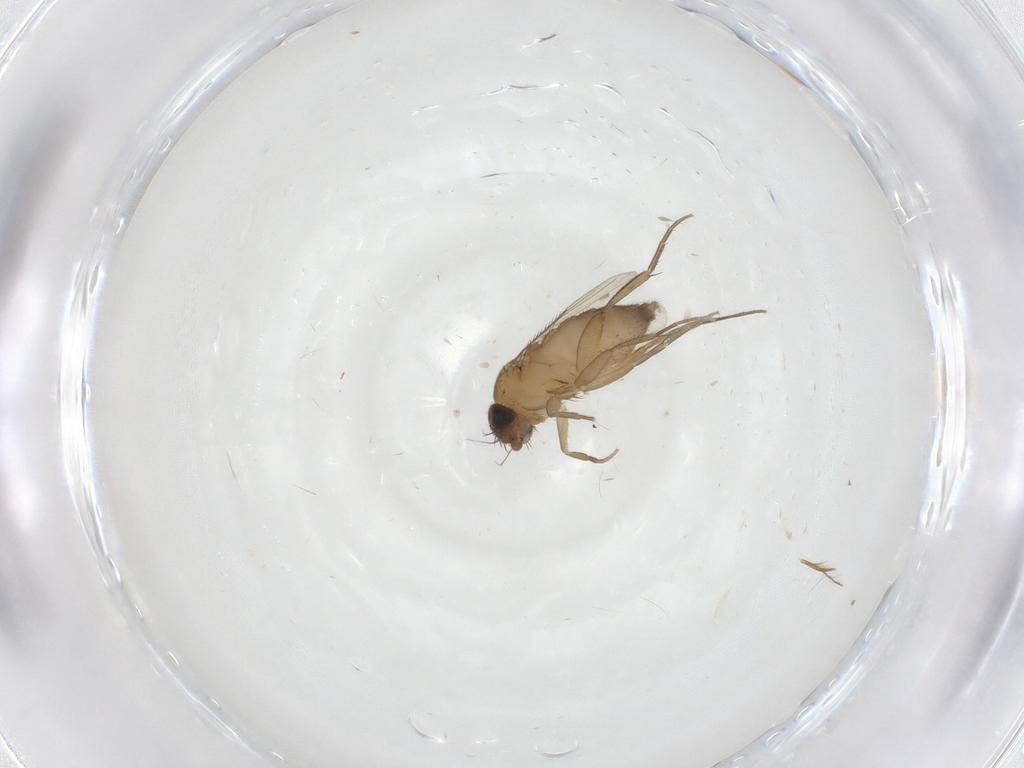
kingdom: Animalia
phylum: Arthropoda
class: Insecta
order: Diptera
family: Phoridae
